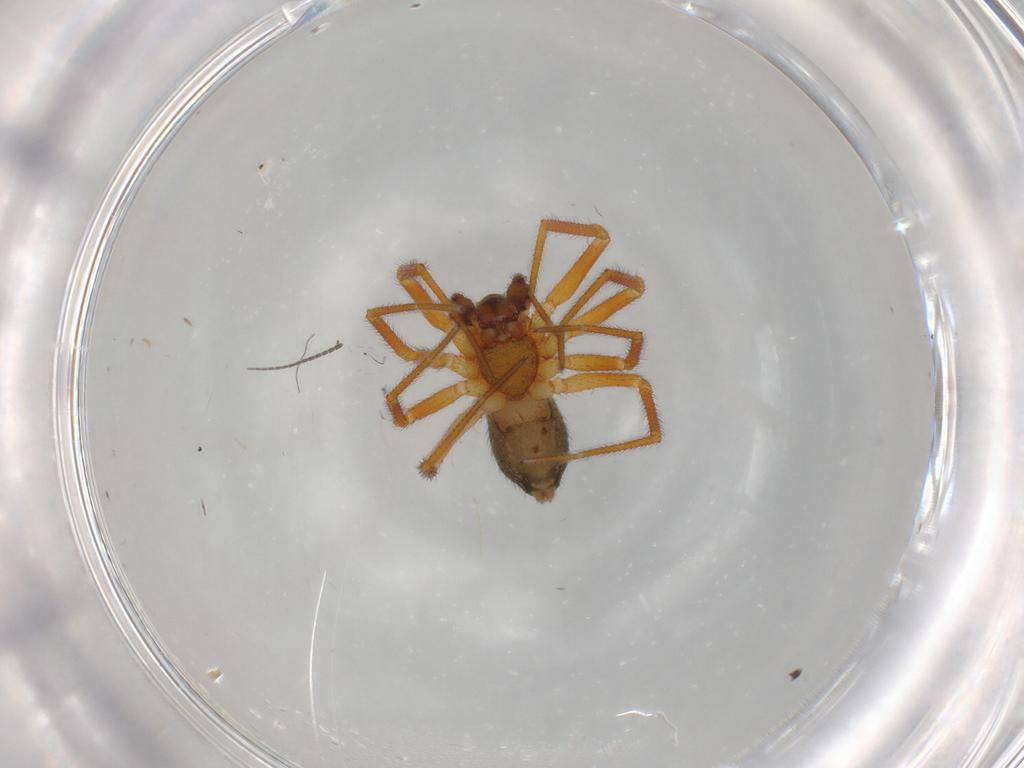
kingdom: Animalia
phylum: Arthropoda
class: Arachnida
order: Araneae
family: Linyphiidae
